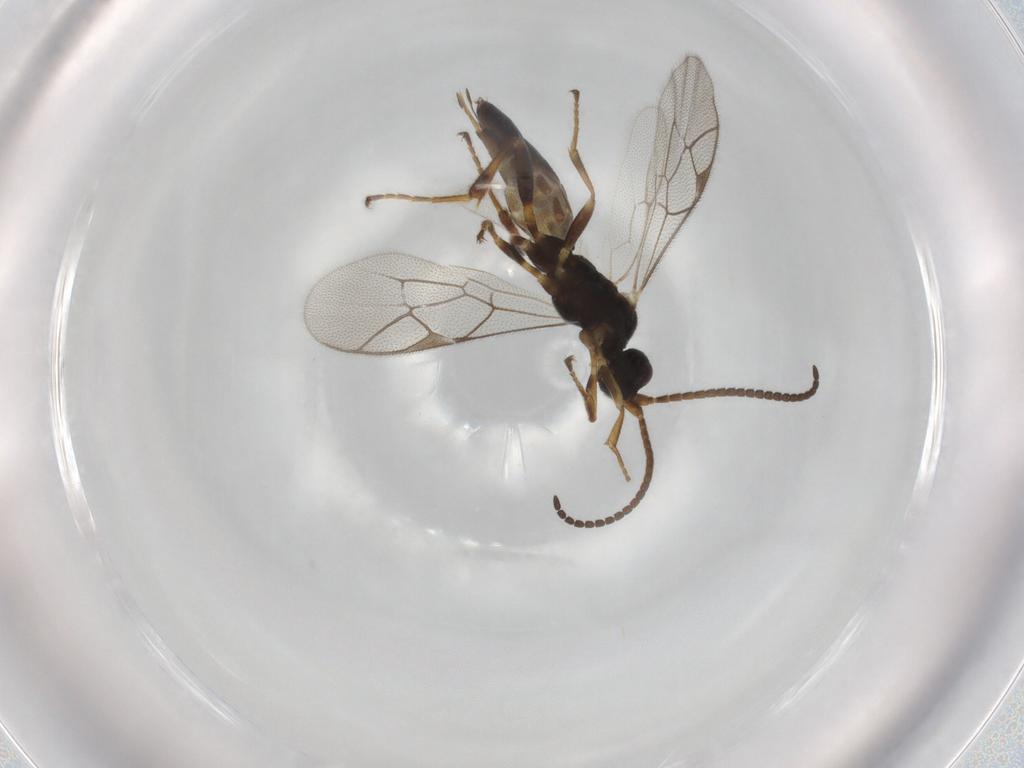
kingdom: Animalia
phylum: Arthropoda
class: Insecta
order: Hymenoptera
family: Ichneumonidae
